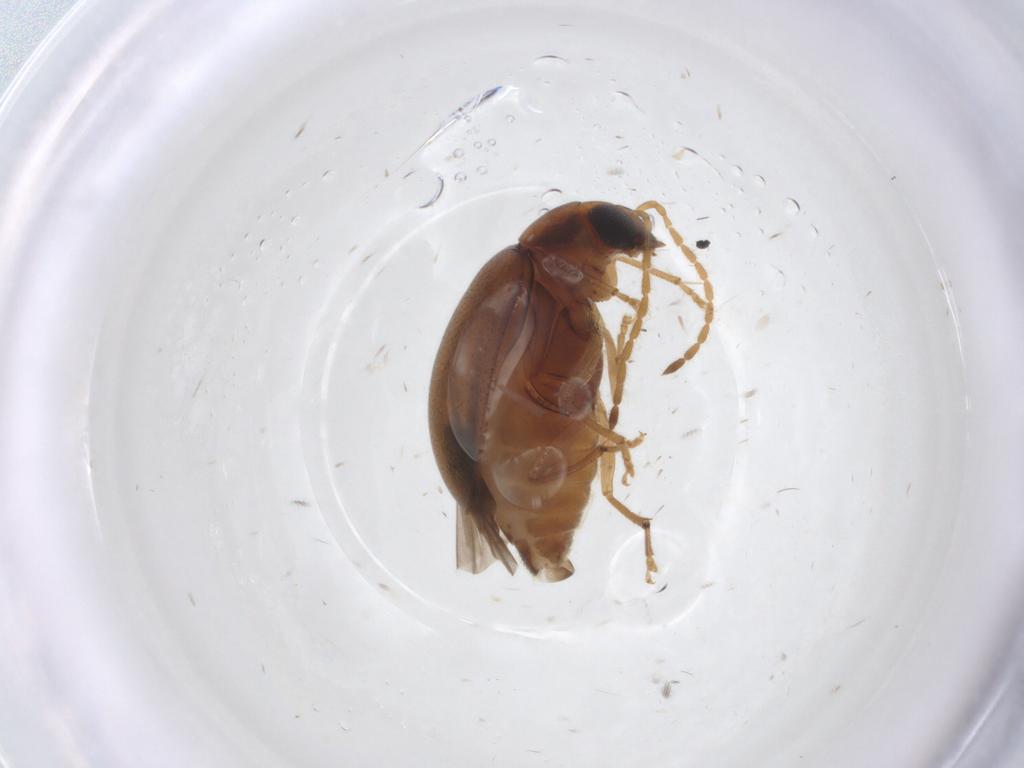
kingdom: Animalia
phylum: Arthropoda
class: Insecta
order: Coleoptera
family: Chrysomelidae
